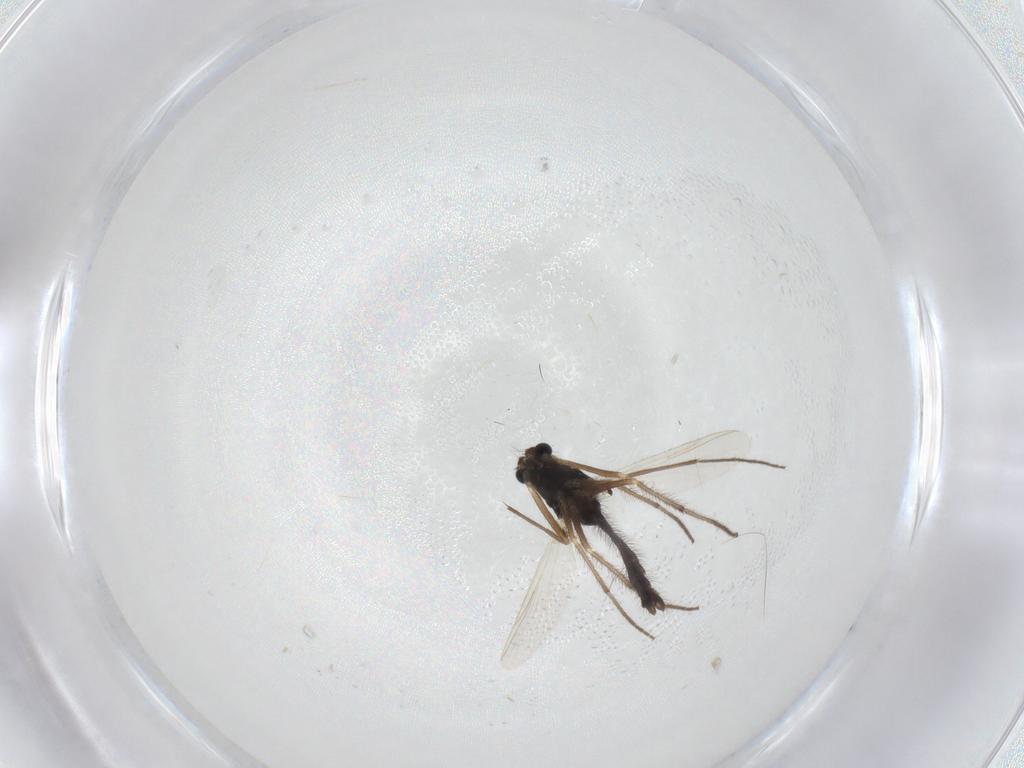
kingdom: Animalia
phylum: Arthropoda
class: Insecta
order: Diptera
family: Chironomidae
